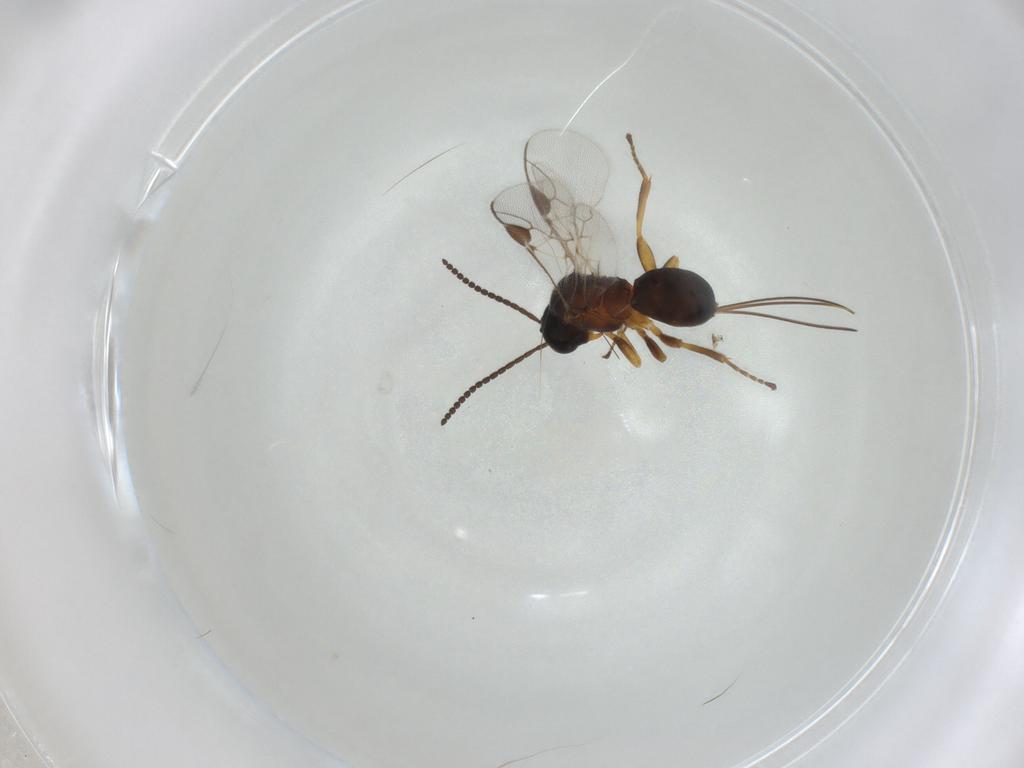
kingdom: Animalia
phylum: Arthropoda
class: Insecta
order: Hymenoptera
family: Braconidae
